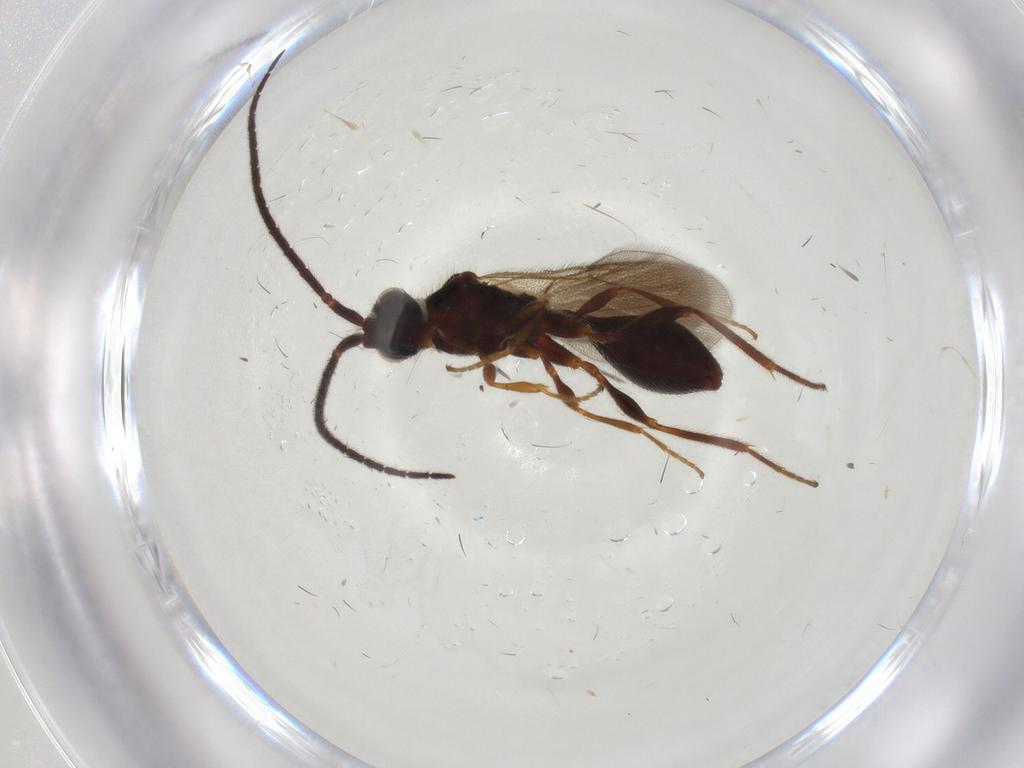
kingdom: Animalia
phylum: Arthropoda
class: Insecta
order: Hymenoptera
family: Diapriidae
